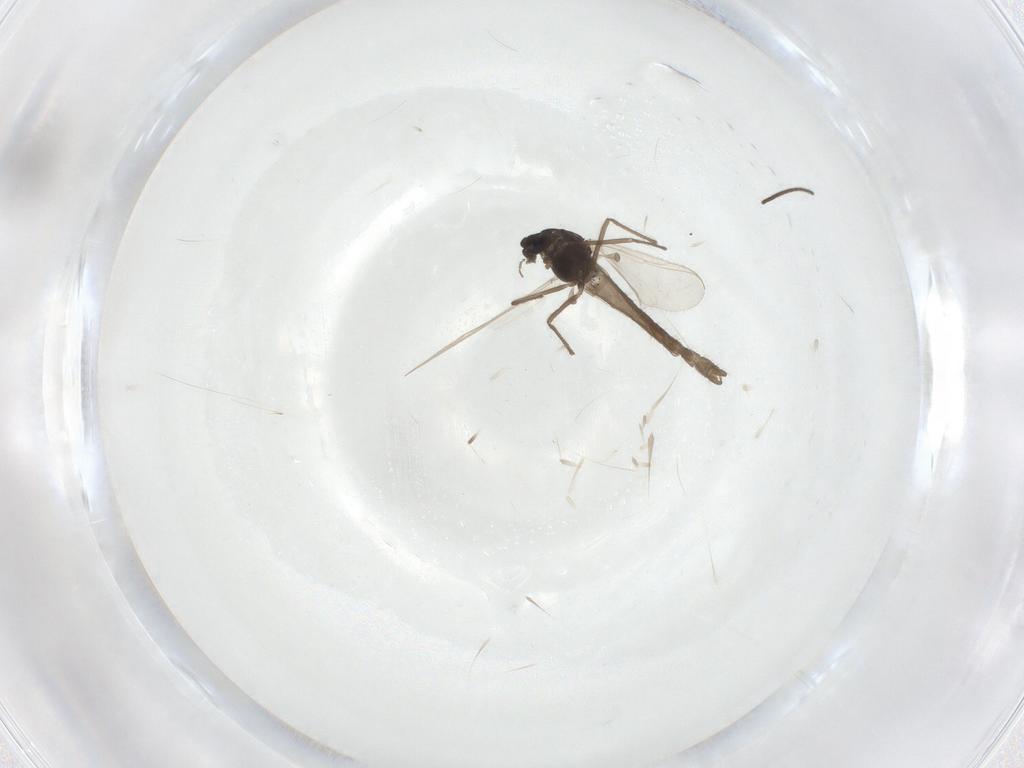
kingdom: Animalia
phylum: Arthropoda
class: Insecta
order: Diptera
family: Chironomidae
